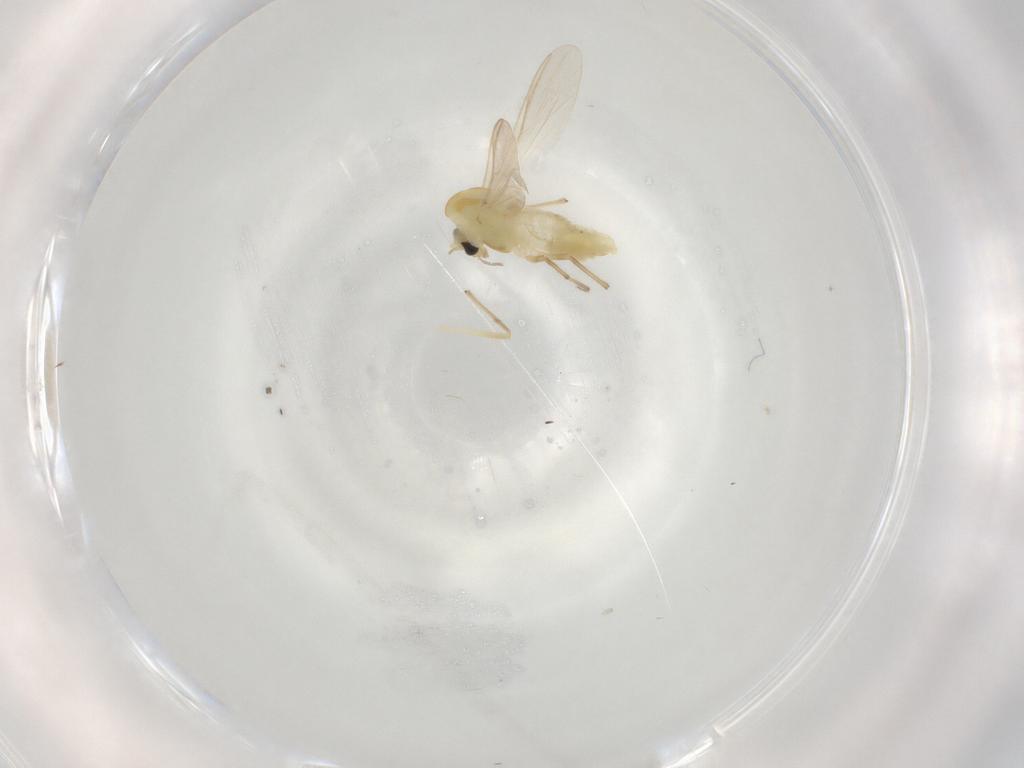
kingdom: Animalia
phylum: Arthropoda
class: Insecta
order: Diptera
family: Chironomidae
